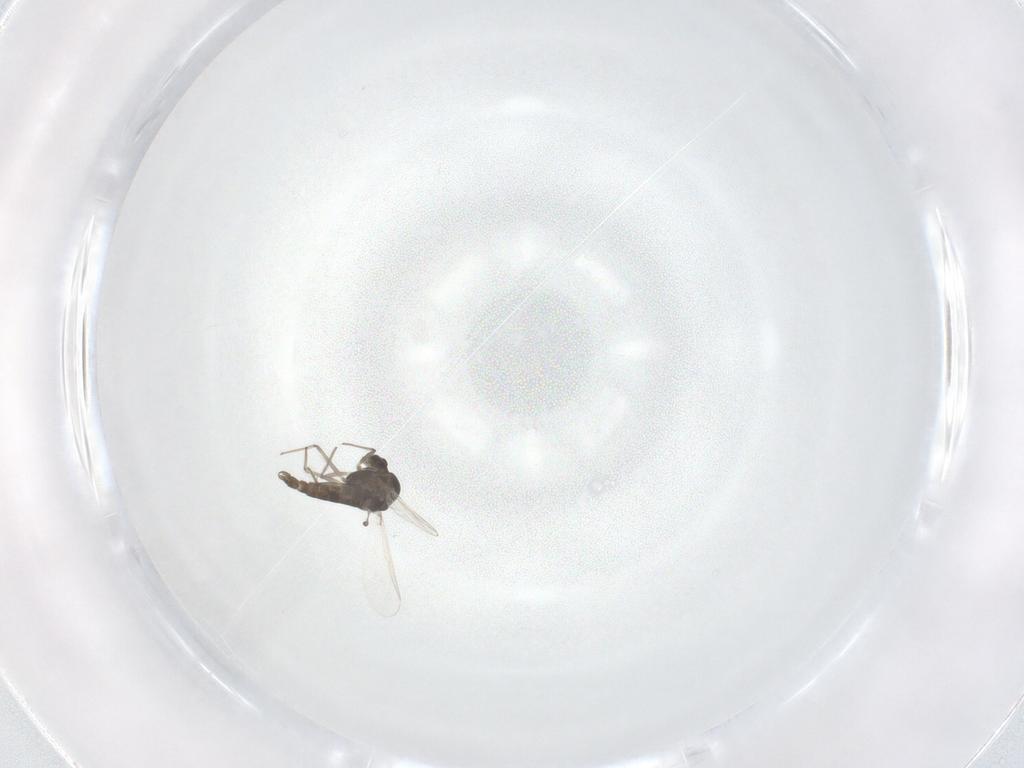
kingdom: Animalia
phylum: Arthropoda
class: Insecta
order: Diptera
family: Chironomidae
